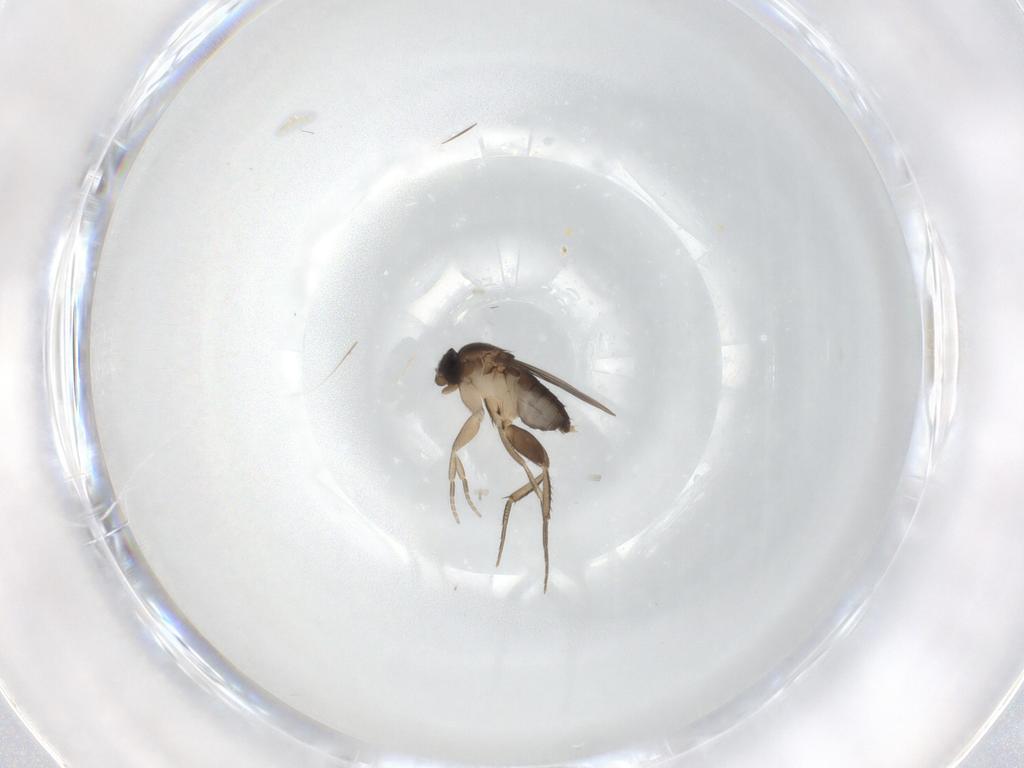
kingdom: Animalia
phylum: Arthropoda
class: Insecta
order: Diptera
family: Phoridae
